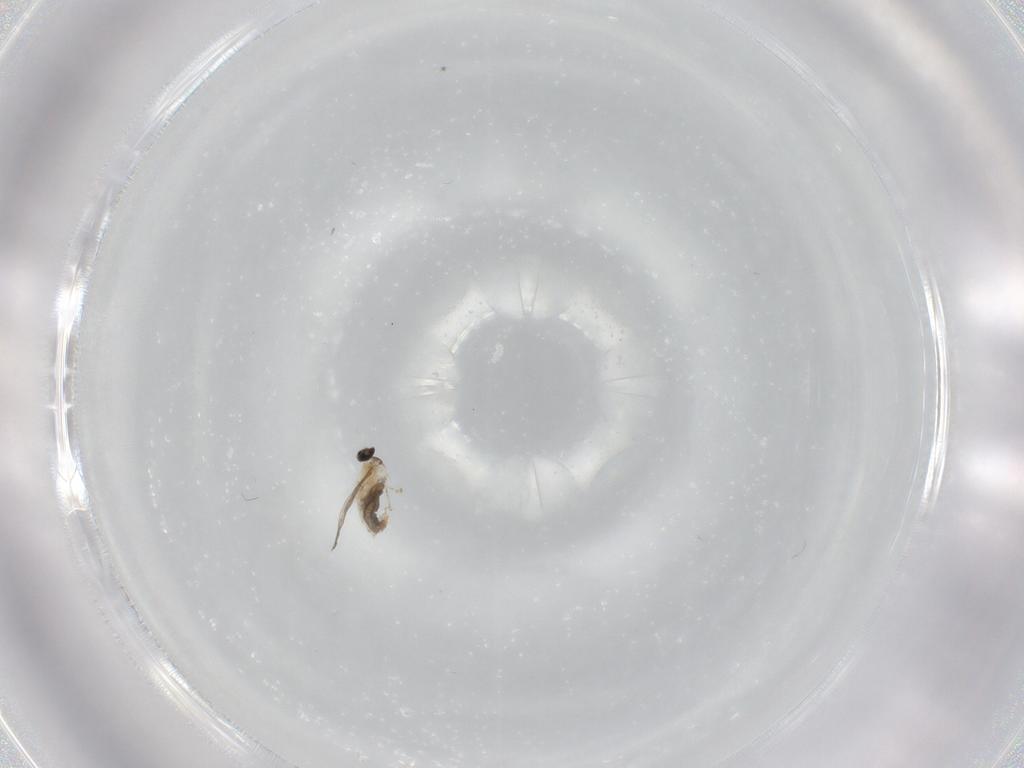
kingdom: Animalia
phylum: Arthropoda
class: Insecta
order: Diptera
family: Cecidomyiidae
